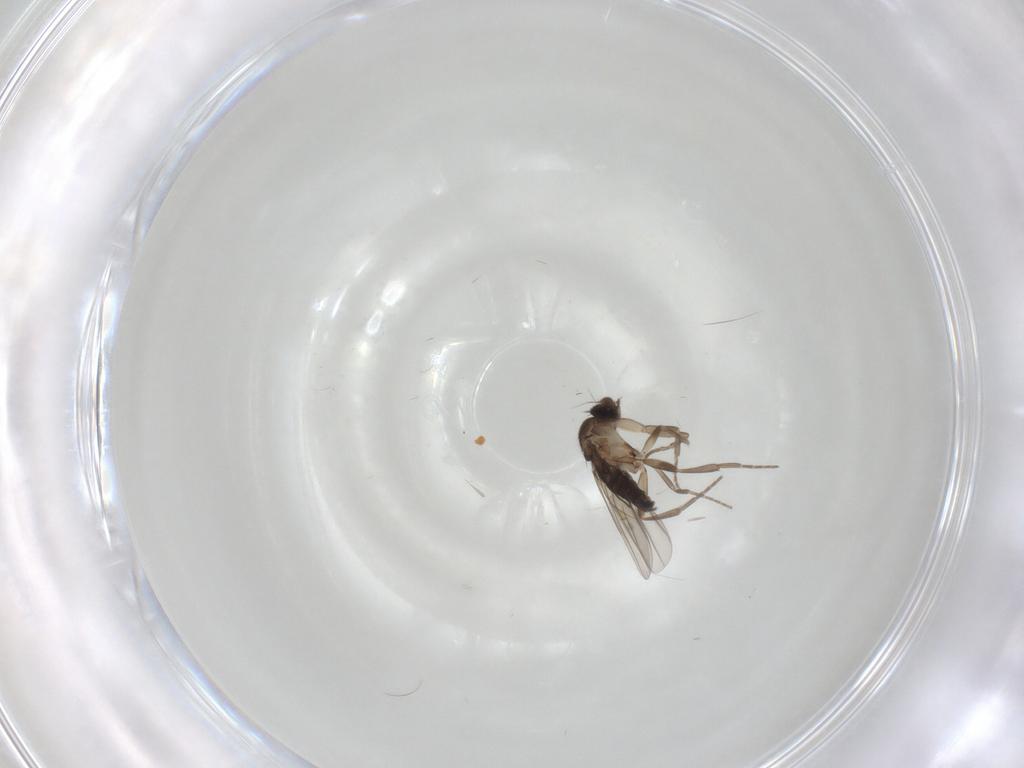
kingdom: Animalia
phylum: Arthropoda
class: Insecta
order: Diptera
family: Phoridae
